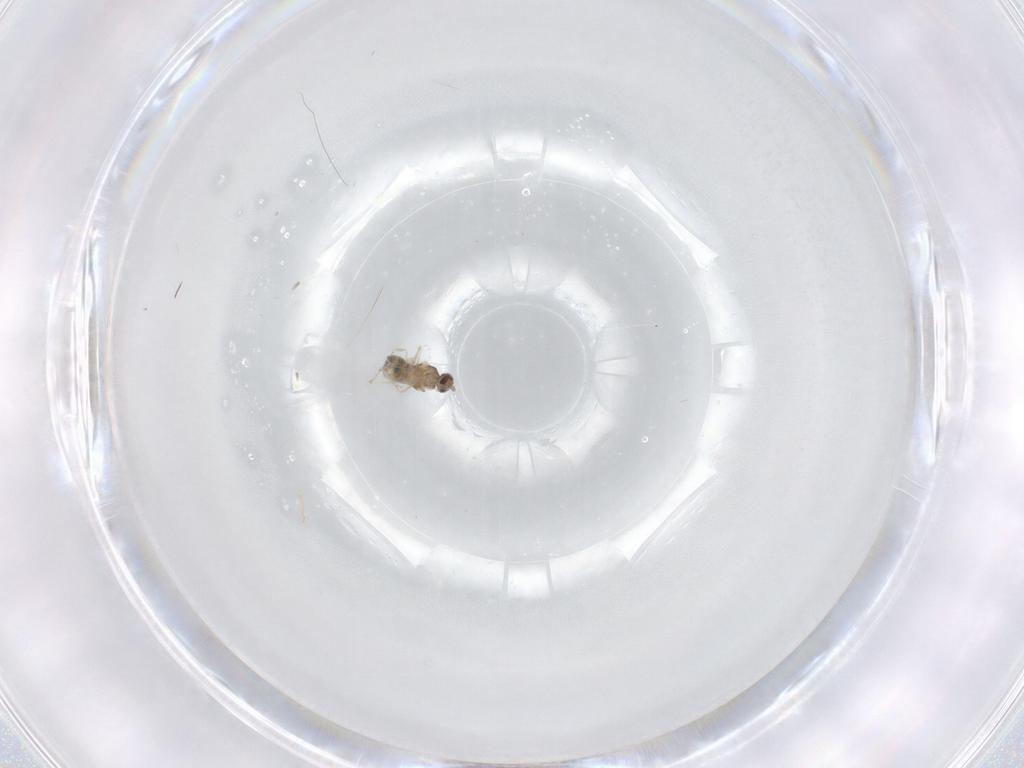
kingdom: Animalia
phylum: Arthropoda
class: Insecta
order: Diptera
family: Cecidomyiidae
